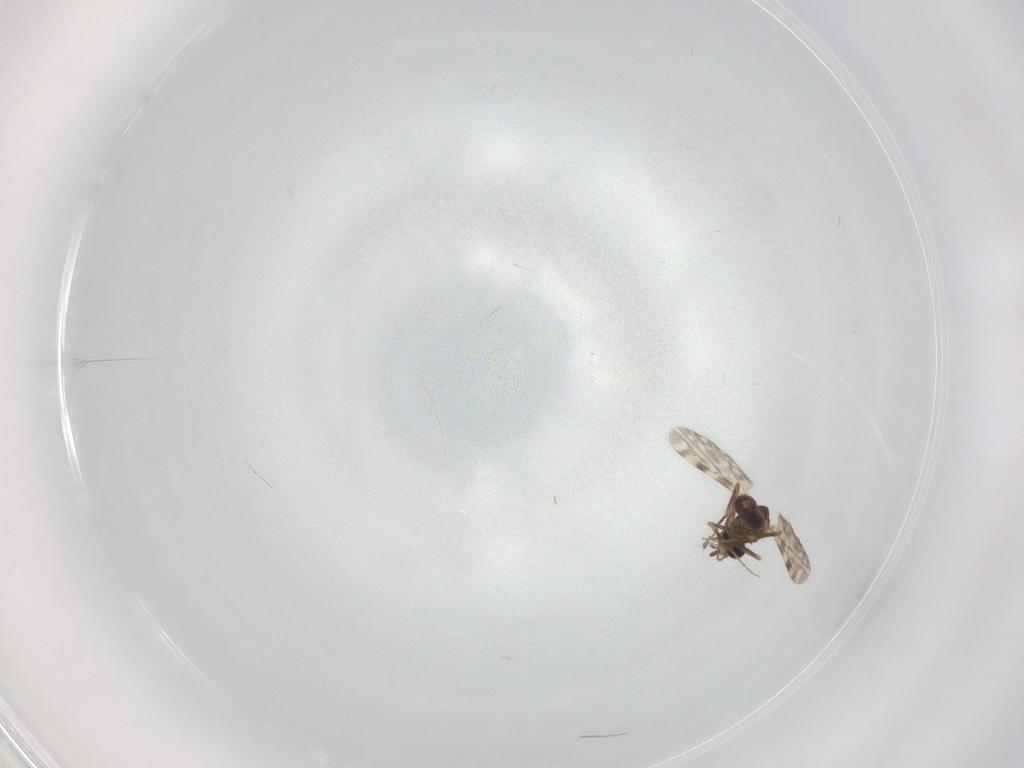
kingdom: Animalia
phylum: Arthropoda
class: Insecta
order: Diptera
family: Ceratopogonidae
